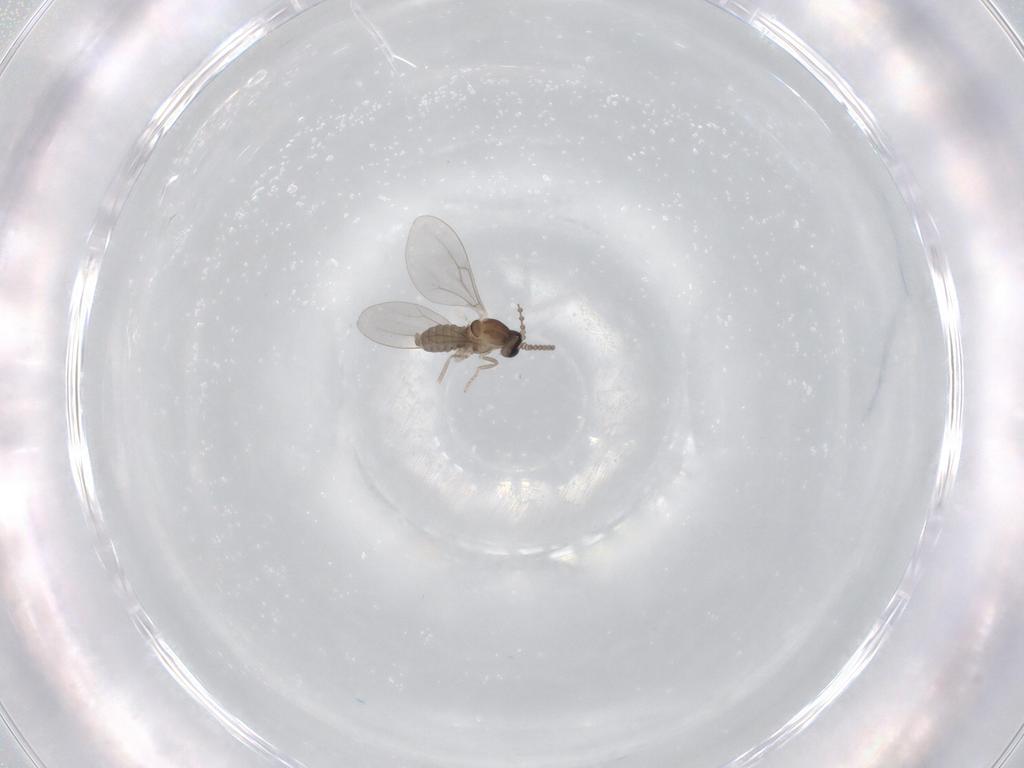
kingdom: Animalia
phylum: Arthropoda
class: Insecta
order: Diptera
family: Cecidomyiidae
